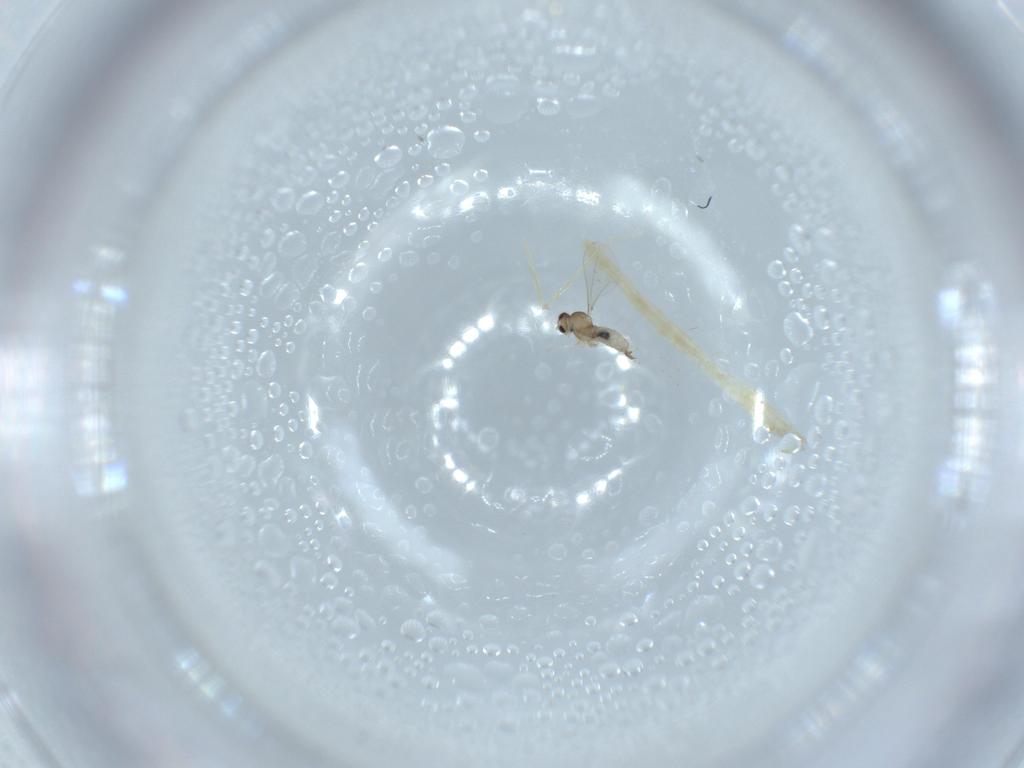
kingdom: Animalia
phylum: Arthropoda
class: Insecta
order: Diptera
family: Cecidomyiidae
